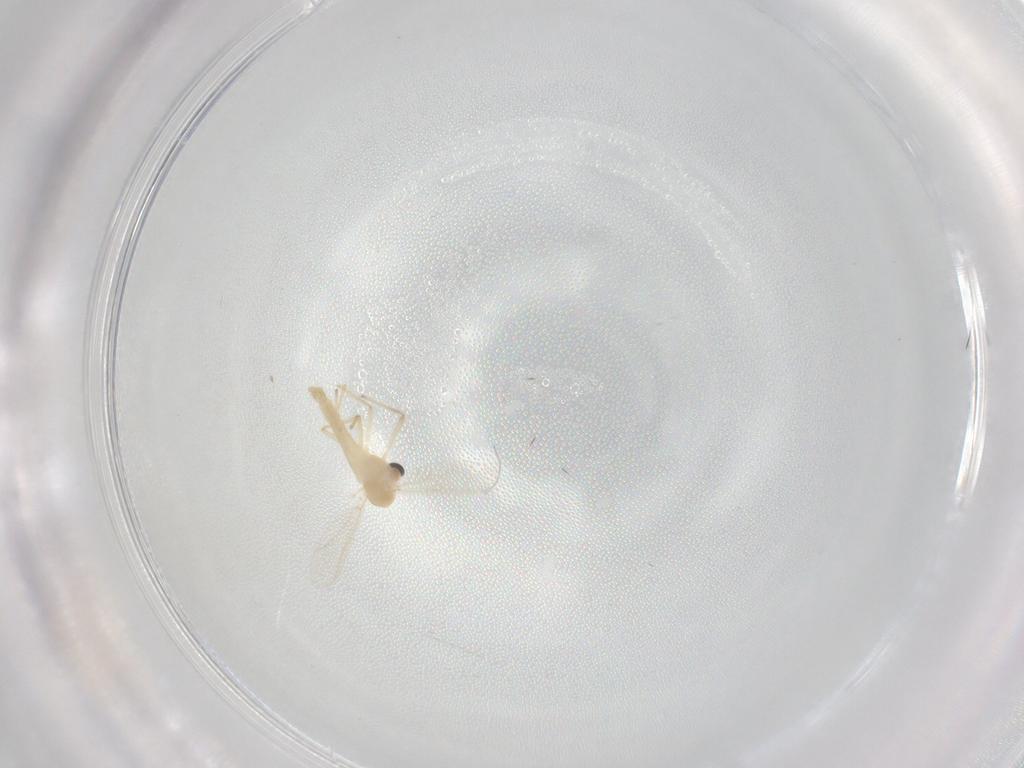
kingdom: Animalia
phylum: Arthropoda
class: Insecta
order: Diptera
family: Chironomidae
